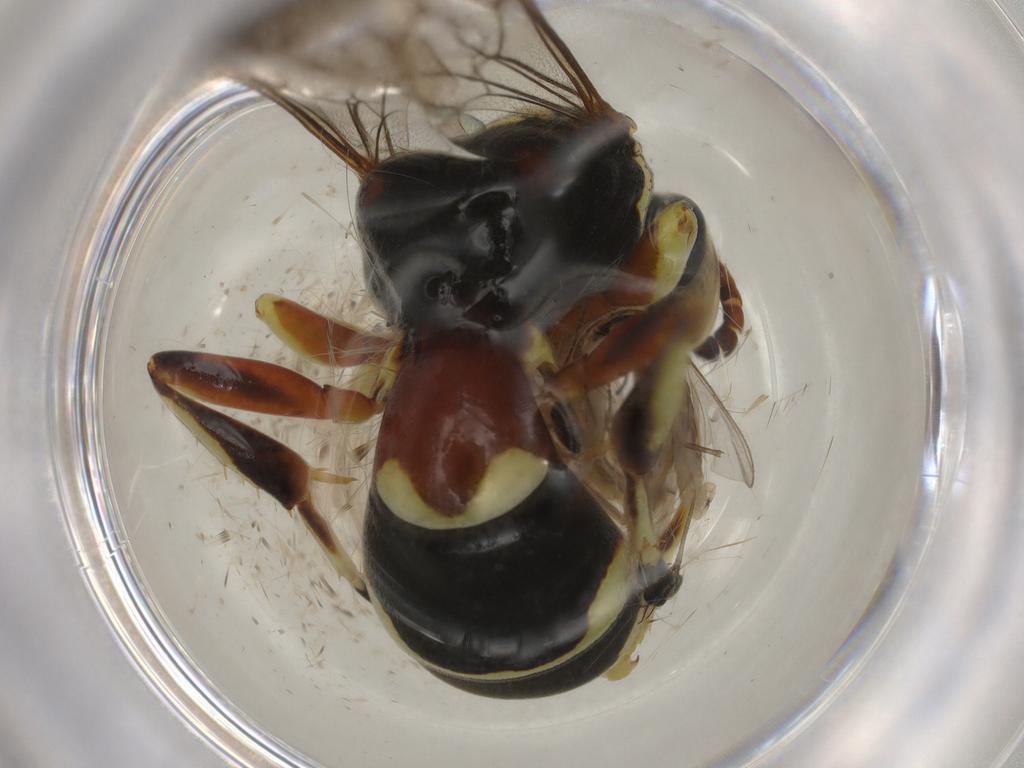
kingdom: Animalia
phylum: Arthropoda
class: Insecta
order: Hymenoptera
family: Bembicidae
